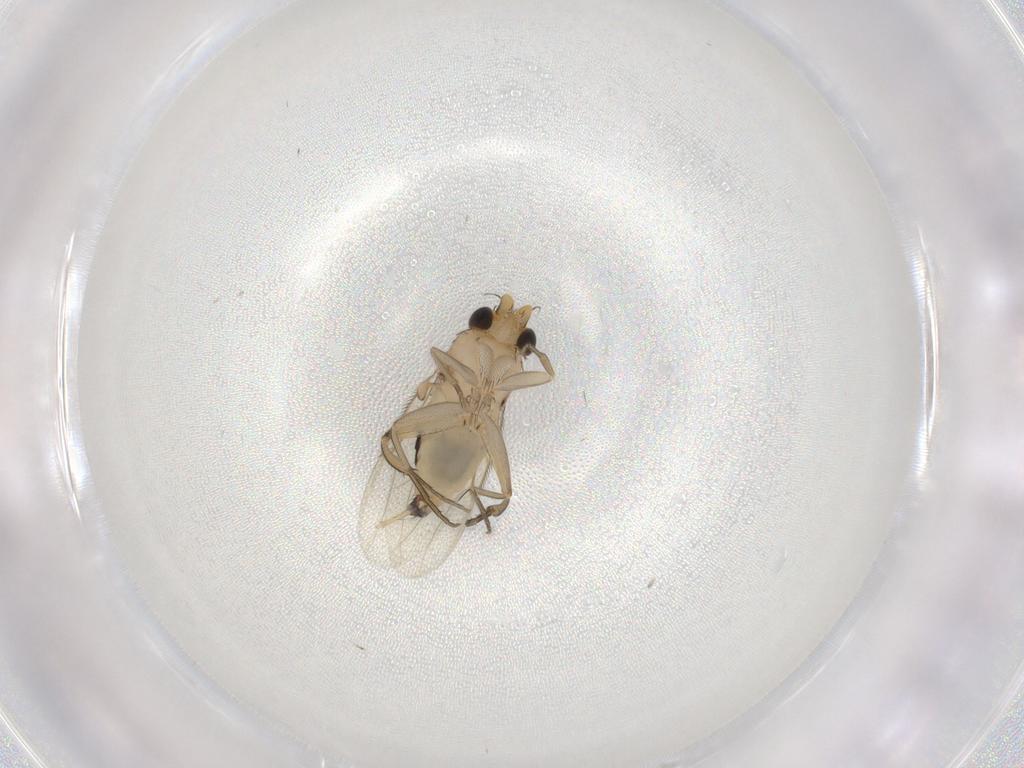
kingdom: Animalia
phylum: Arthropoda
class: Insecta
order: Diptera
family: Phoridae
